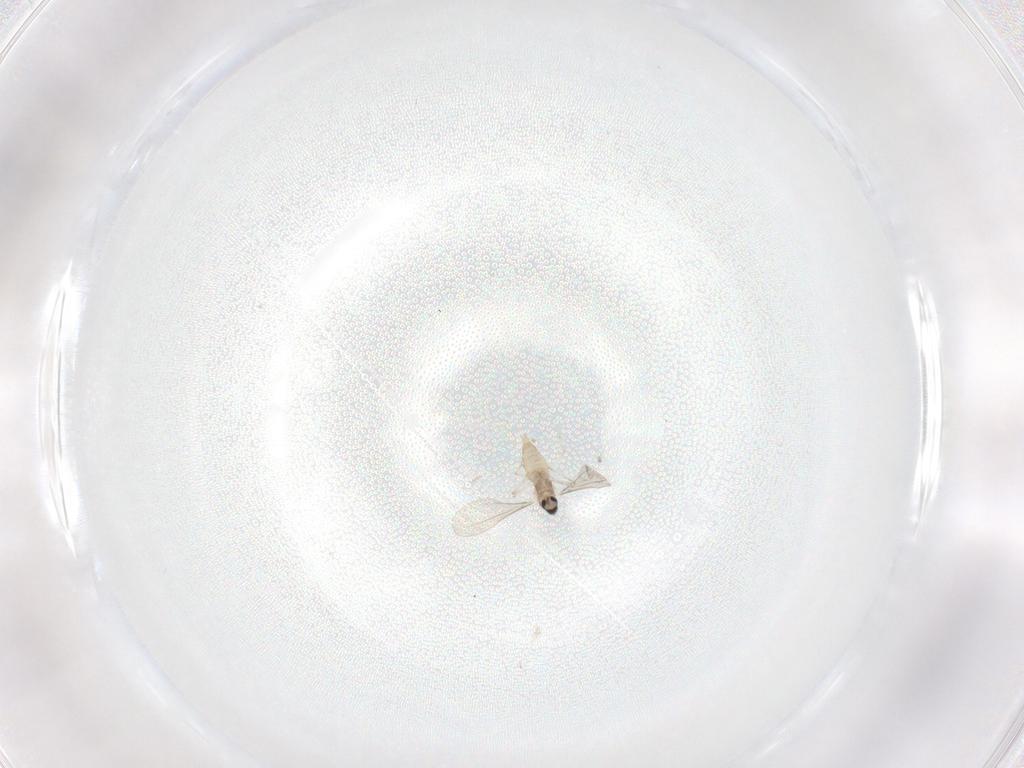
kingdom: Animalia
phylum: Arthropoda
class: Insecta
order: Diptera
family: Cecidomyiidae
